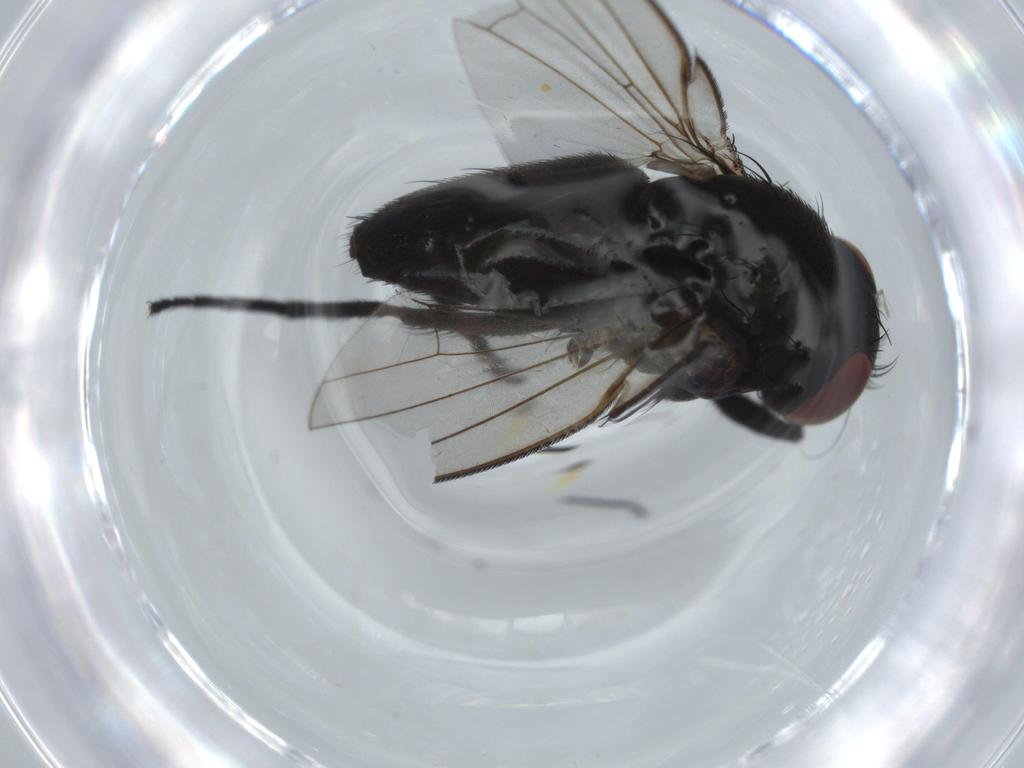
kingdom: Animalia
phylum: Arthropoda
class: Insecta
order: Diptera
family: Milichiidae
